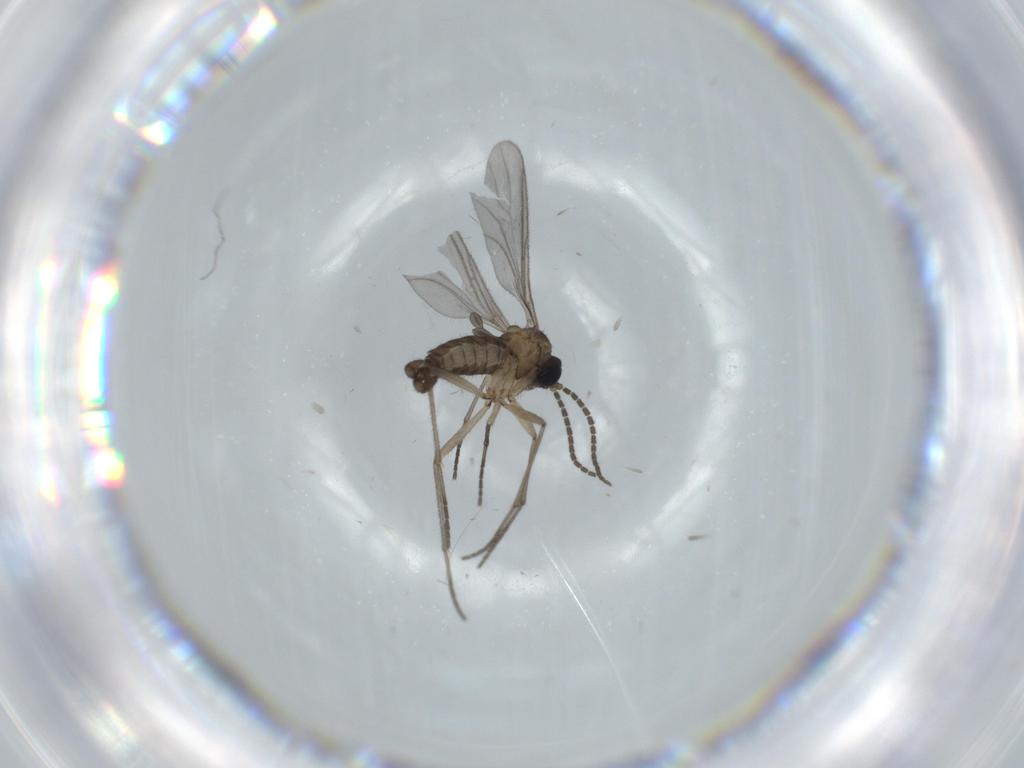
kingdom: Animalia
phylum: Arthropoda
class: Insecta
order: Diptera
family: Sciaridae
